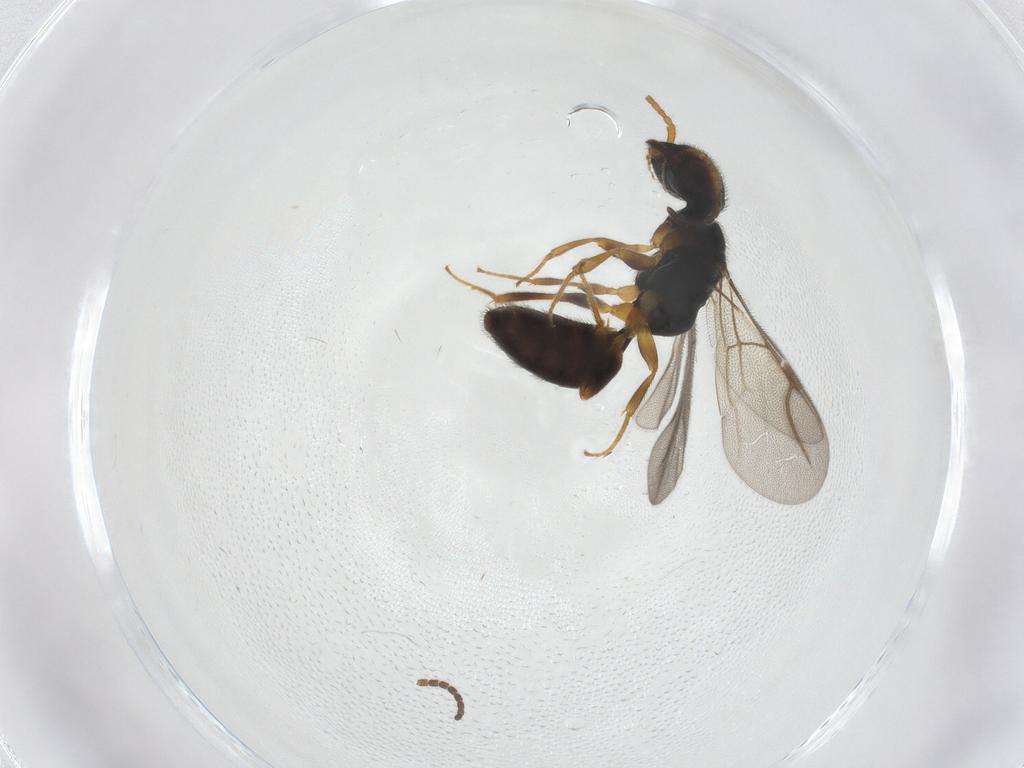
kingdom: Animalia
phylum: Arthropoda
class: Insecta
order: Hymenoptera
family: Bethylidae
